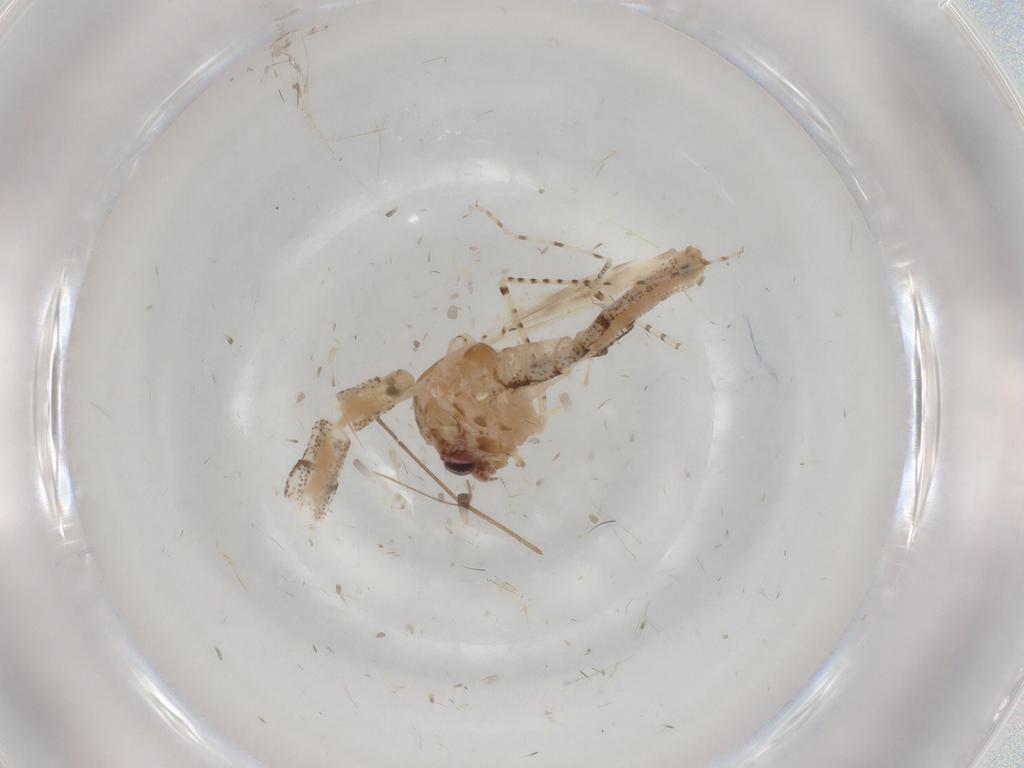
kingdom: Animalia
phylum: Arthropoda
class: Insecta
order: Diptera
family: Chaoboridae
